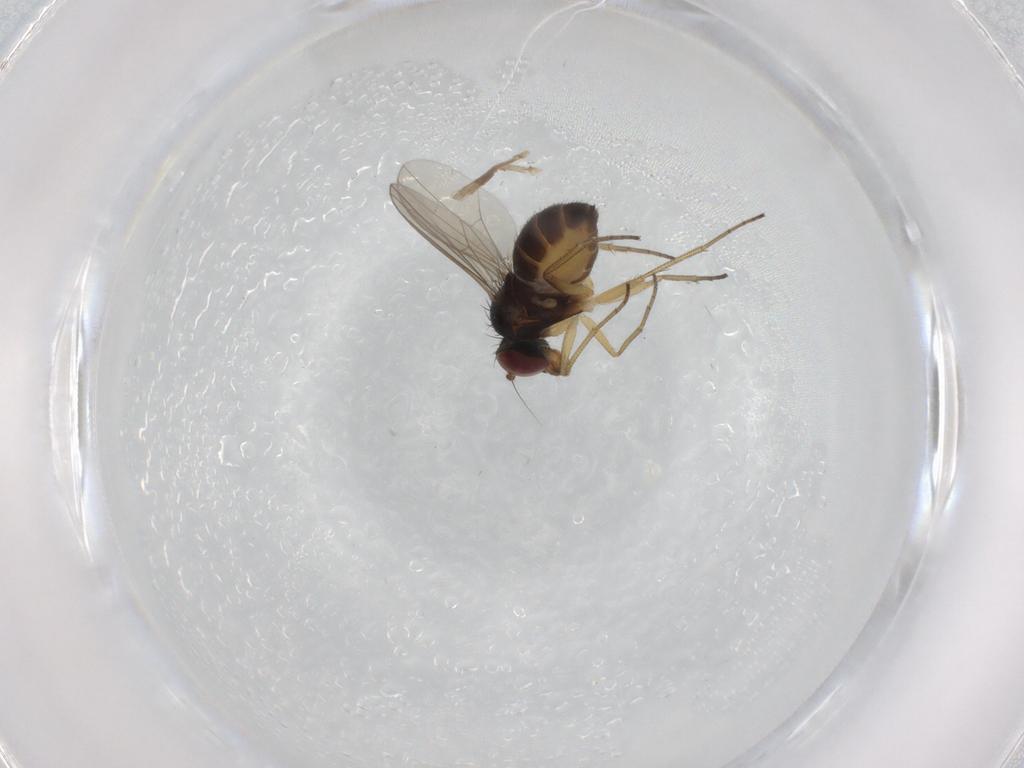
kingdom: Animalia
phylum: Arthropoda
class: Insecta
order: Diptera
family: Dolichopodidae
